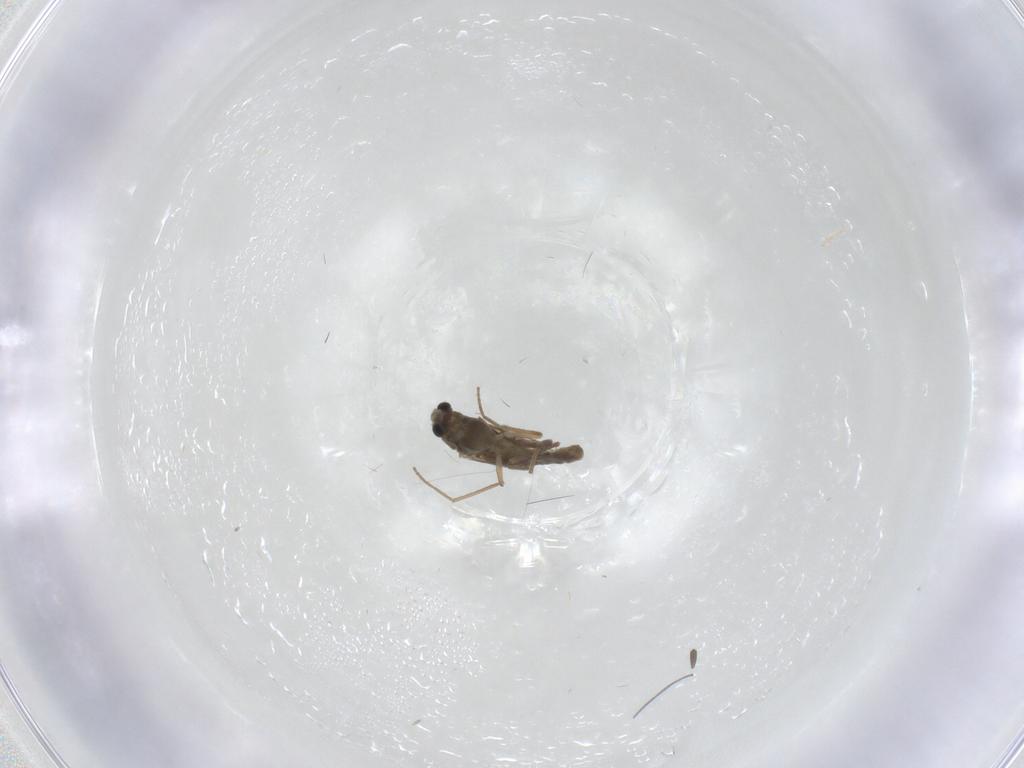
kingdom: Animalia
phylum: Arthropoda
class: Insecta
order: Diptera
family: Chironomidae
